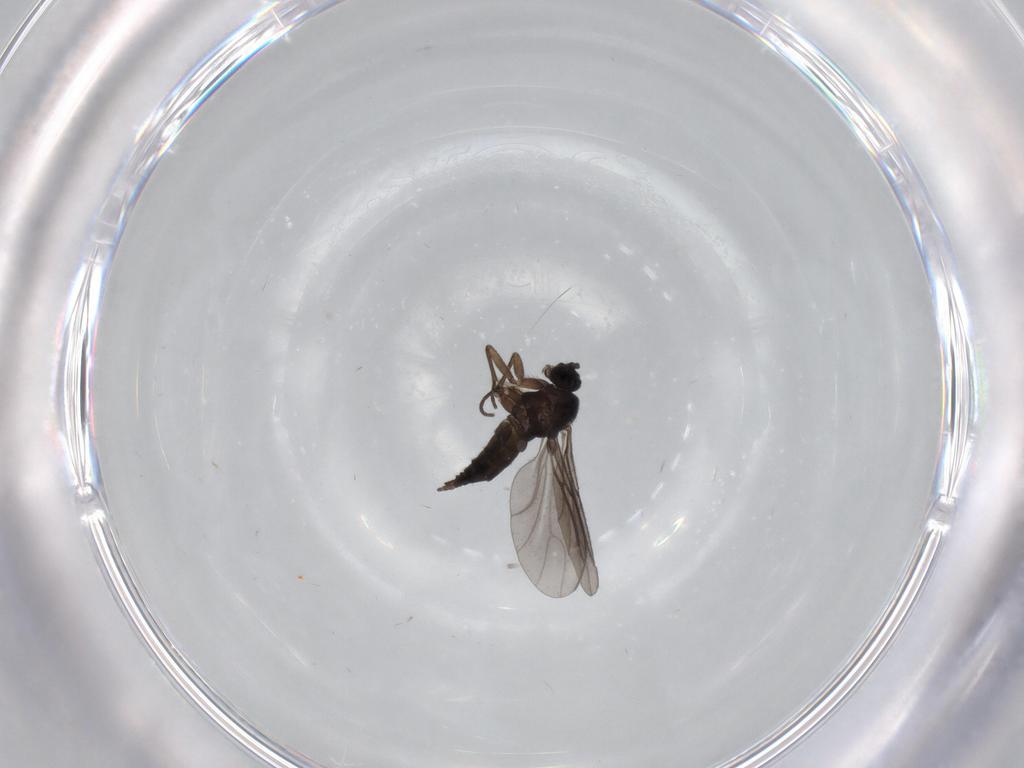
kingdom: Animalia
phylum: Arthropoda
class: Insecta
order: Diptera
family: Sciaridae
